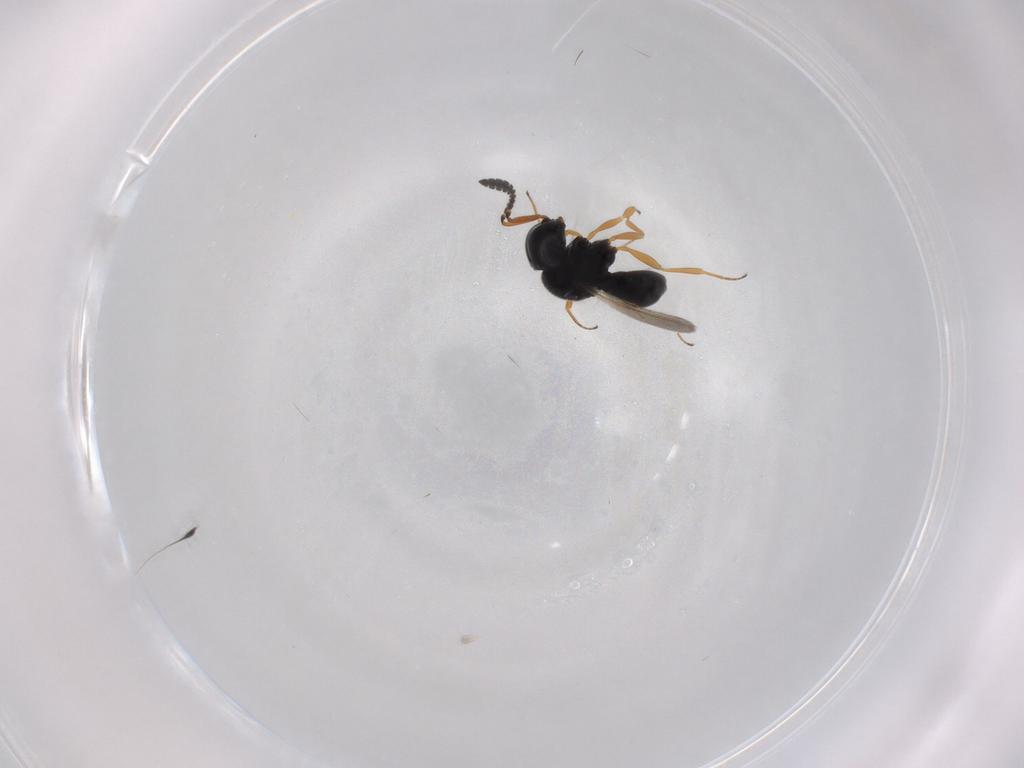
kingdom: Animalia
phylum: Arthropoda
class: Insecta
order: Hymenoptera
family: Scelionidae
